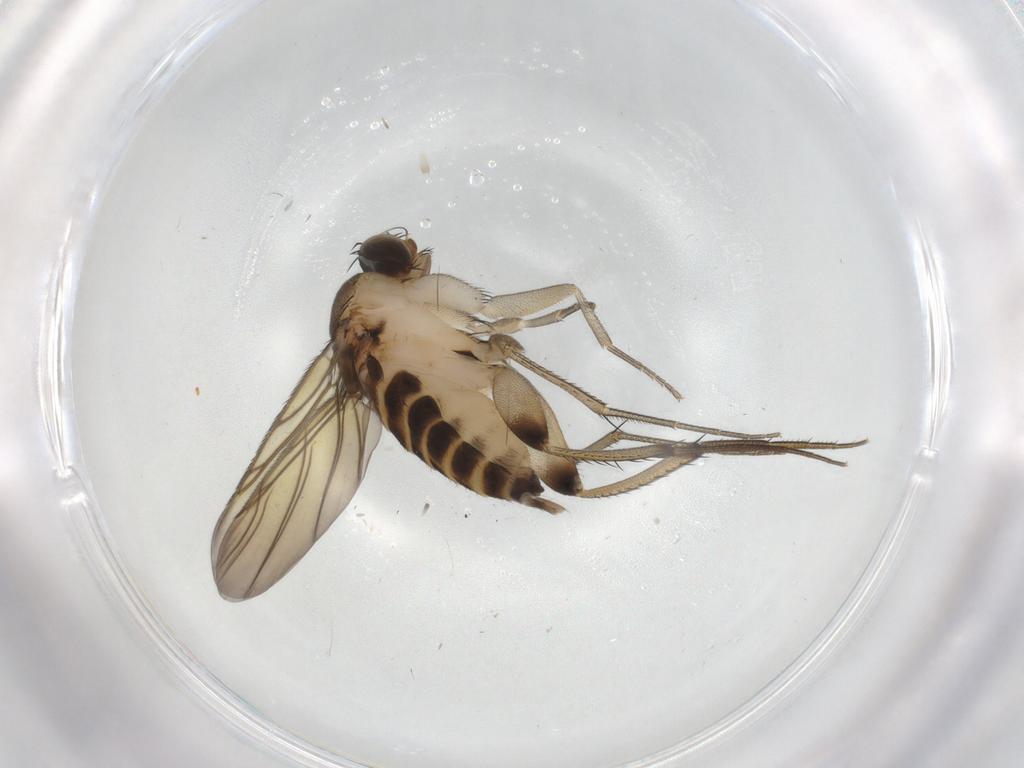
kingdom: Animalia
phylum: Arthropoda
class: Insecta
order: Diptera
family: Phoridae
